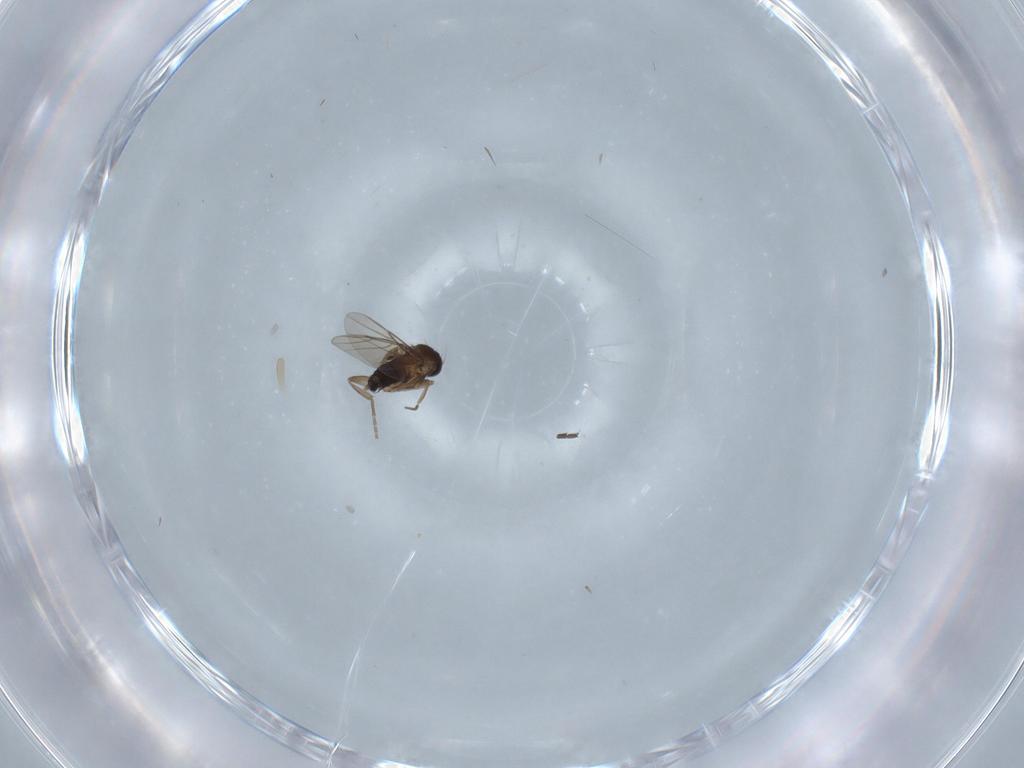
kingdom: Animalia
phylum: Arthropoda
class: Insecta
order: Diptera
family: Sciaridae
